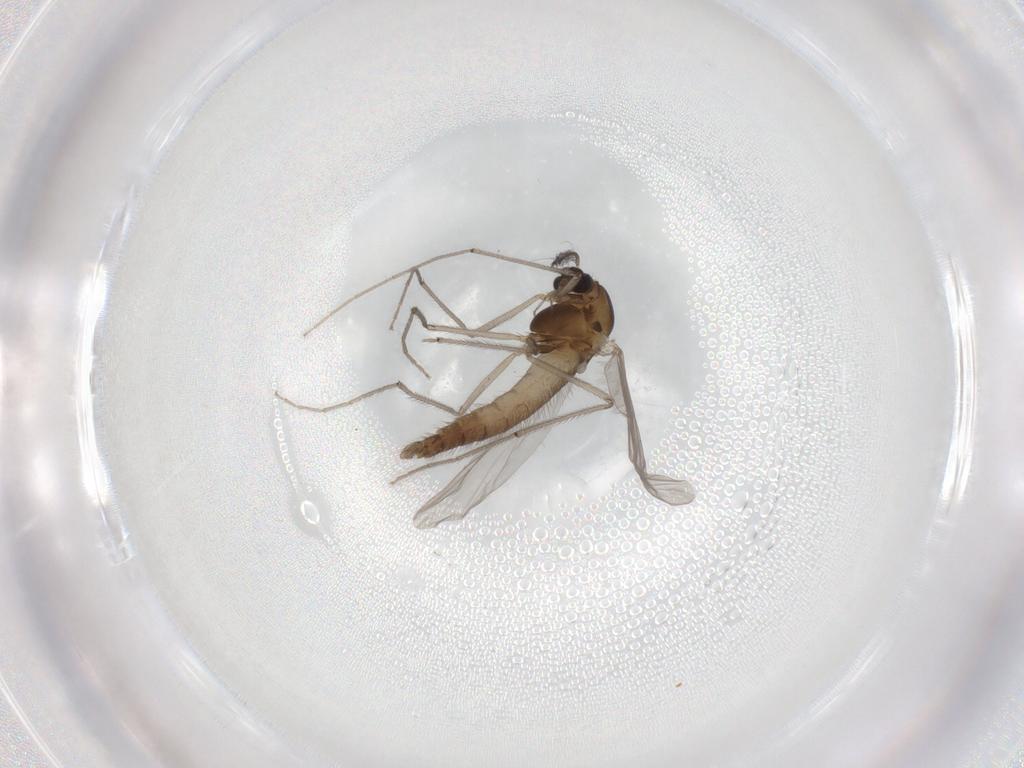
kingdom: Animalia
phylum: Arthropoda
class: Insecta
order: Diptera
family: Chironomidae
